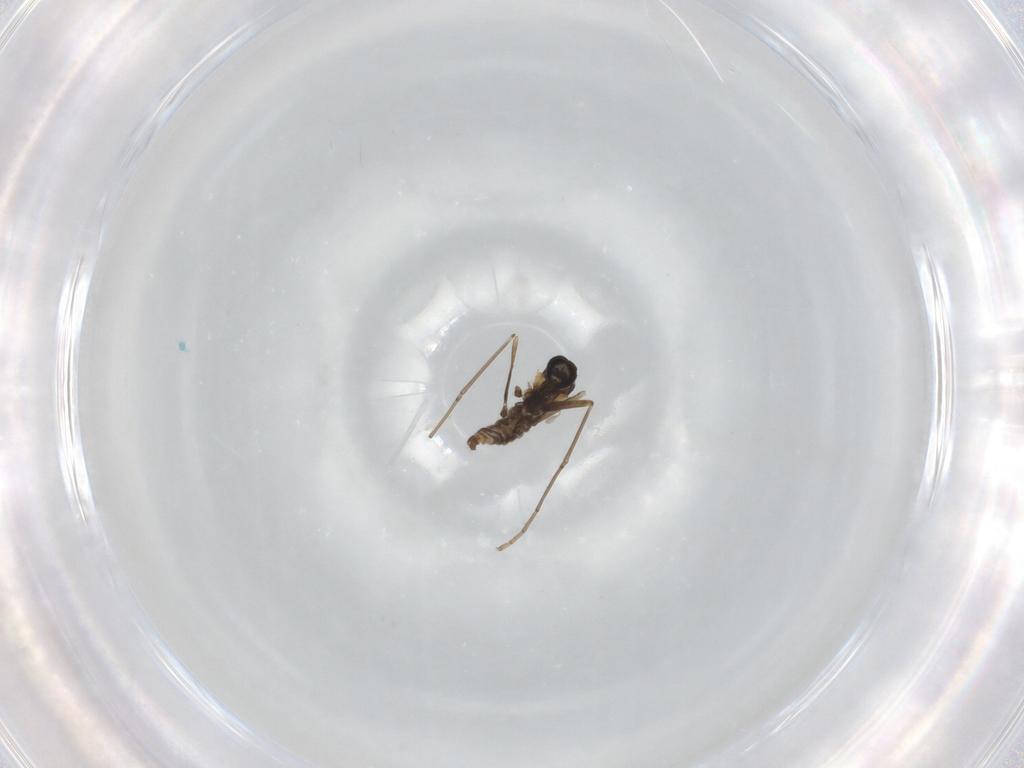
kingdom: Animalia
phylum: Arthropoda
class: Insecta
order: Diptera
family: Cecidomyiidae
